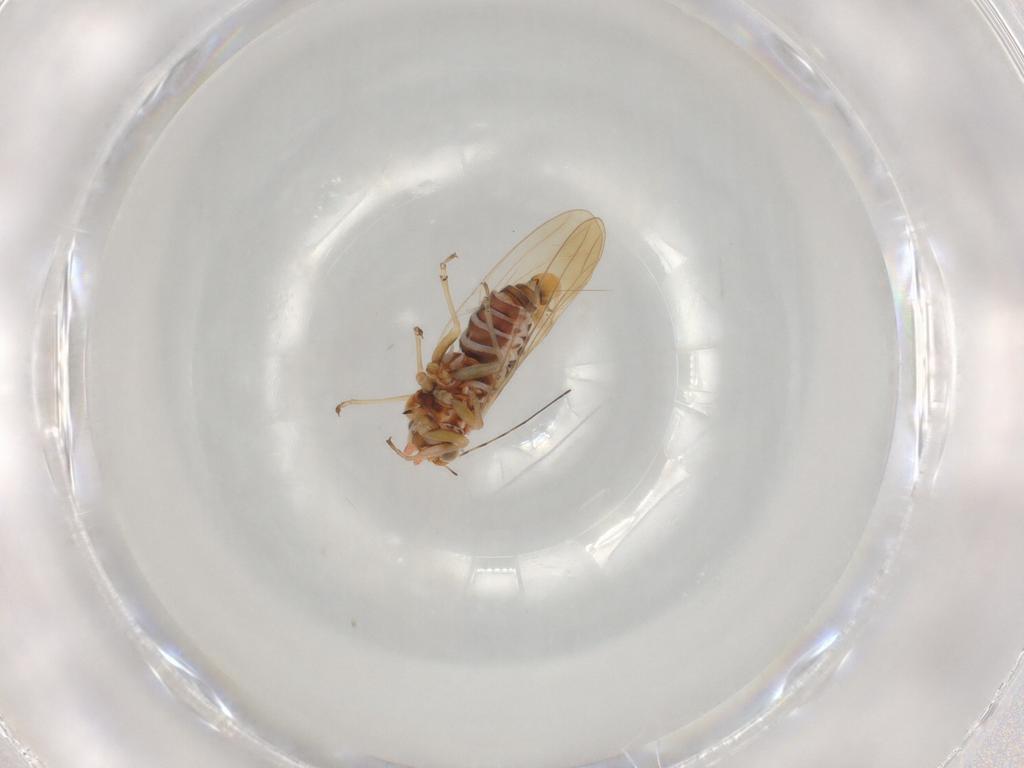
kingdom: Animalia
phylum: Arthropoda
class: Insecta
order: Hemiptera
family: Psyllidae
